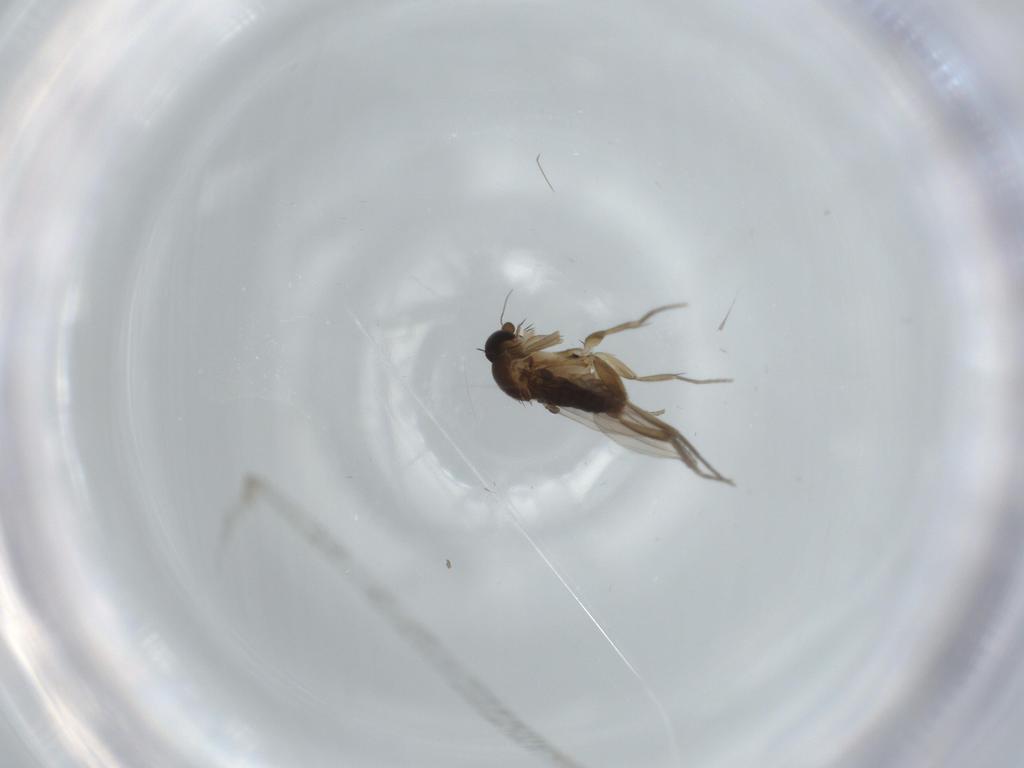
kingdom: Animalia
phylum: Arthropoda
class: Insecta
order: Diptera
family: Phoridae
